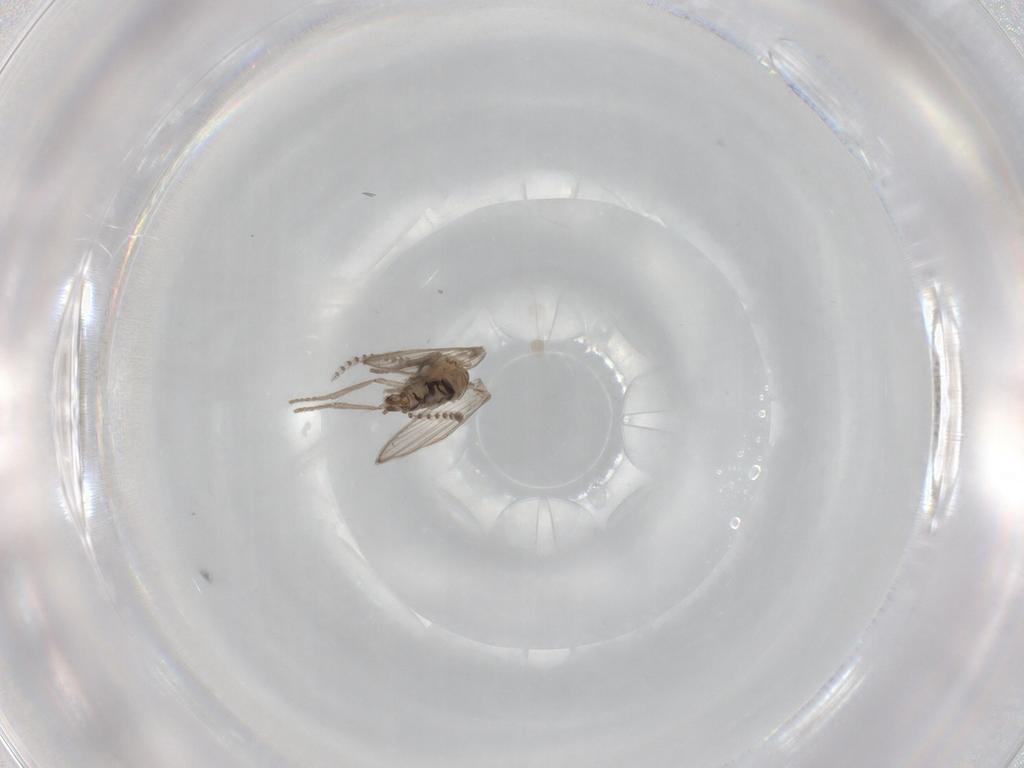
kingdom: Animalia
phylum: Arthropoda
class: Insecta
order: Diptera
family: Psychodidae
